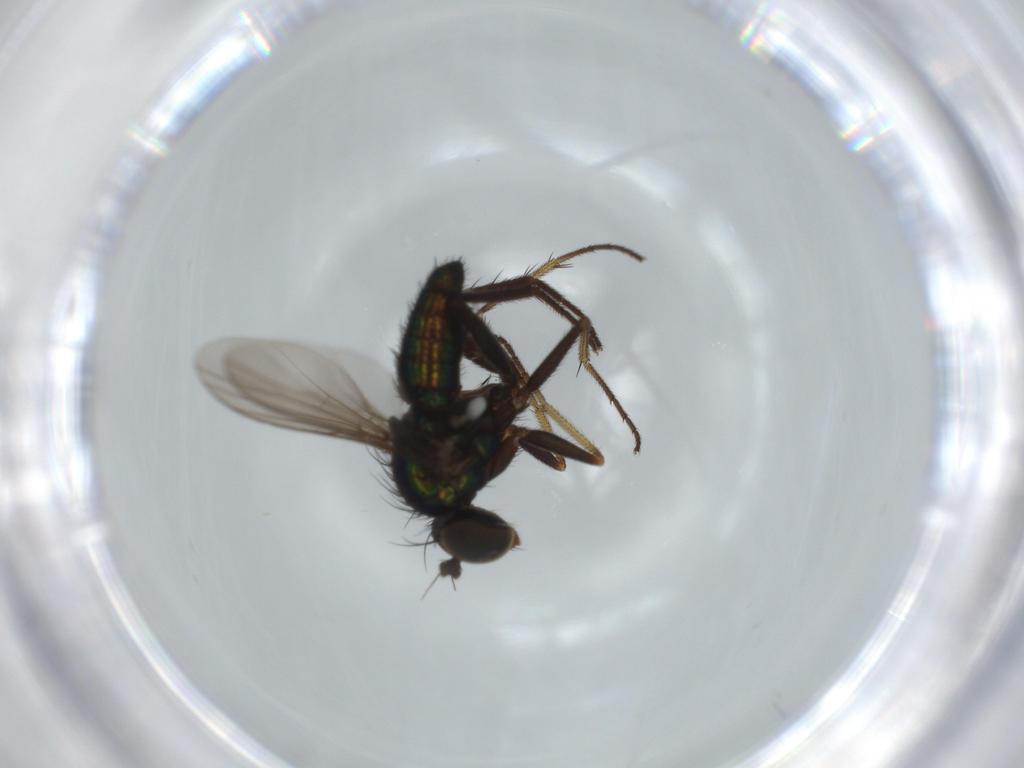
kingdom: Animalia
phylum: Arthropoda
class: Insecta
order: Diptera
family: Dolichopodidae
